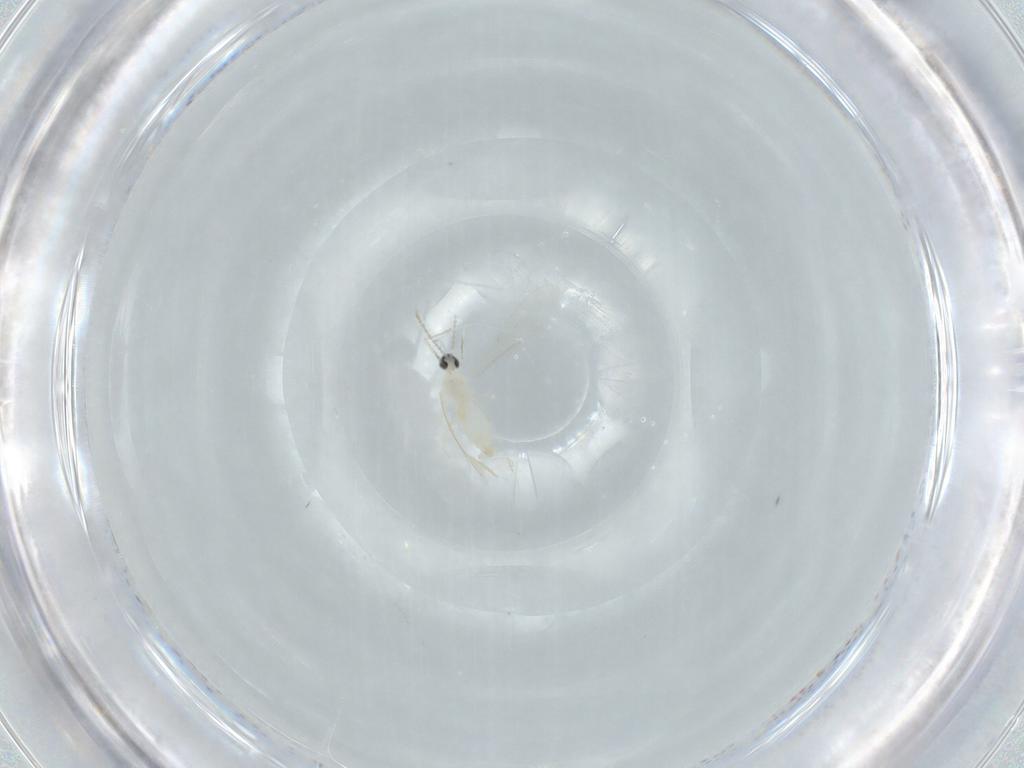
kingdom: Animalia
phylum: Arthropoda
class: Insecta
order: Diptera
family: Cecidomyiidae
